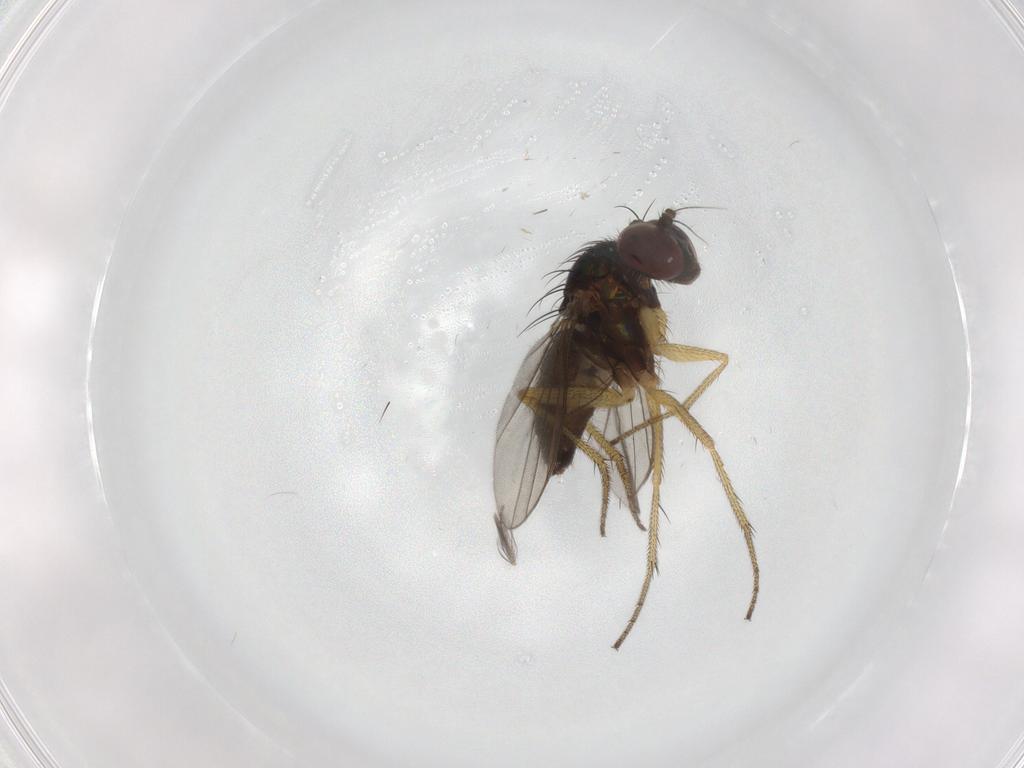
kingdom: Animalia
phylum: Arthropoda
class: Insecta
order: Diptera
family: Ceratopogonidae
